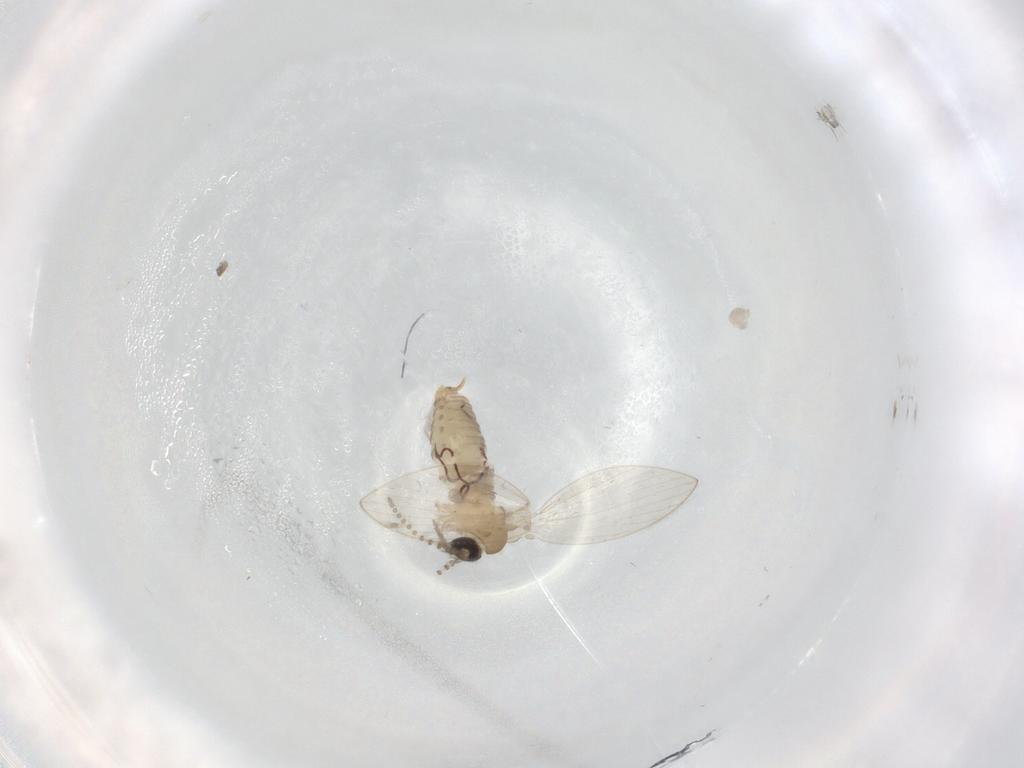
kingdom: Animalia
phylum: Arthropoda
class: Insecta
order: Diptera
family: Psychodidae
